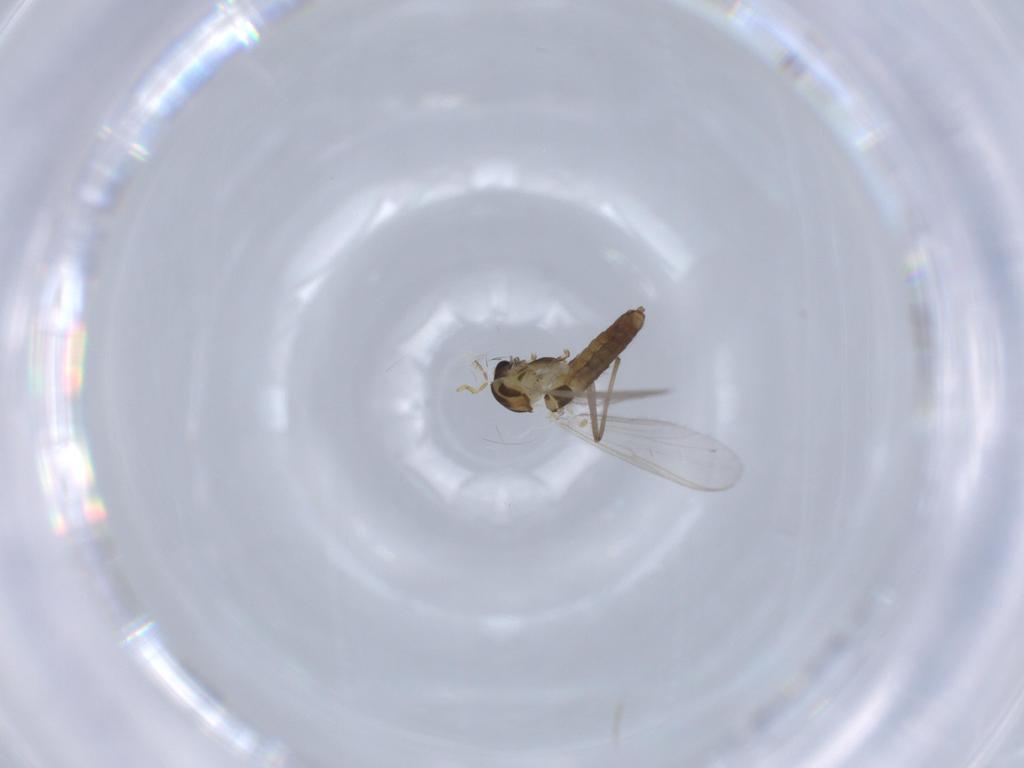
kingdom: Animalia
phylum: Arthropoda
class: Insecta
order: Diptera
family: Chironomidae
